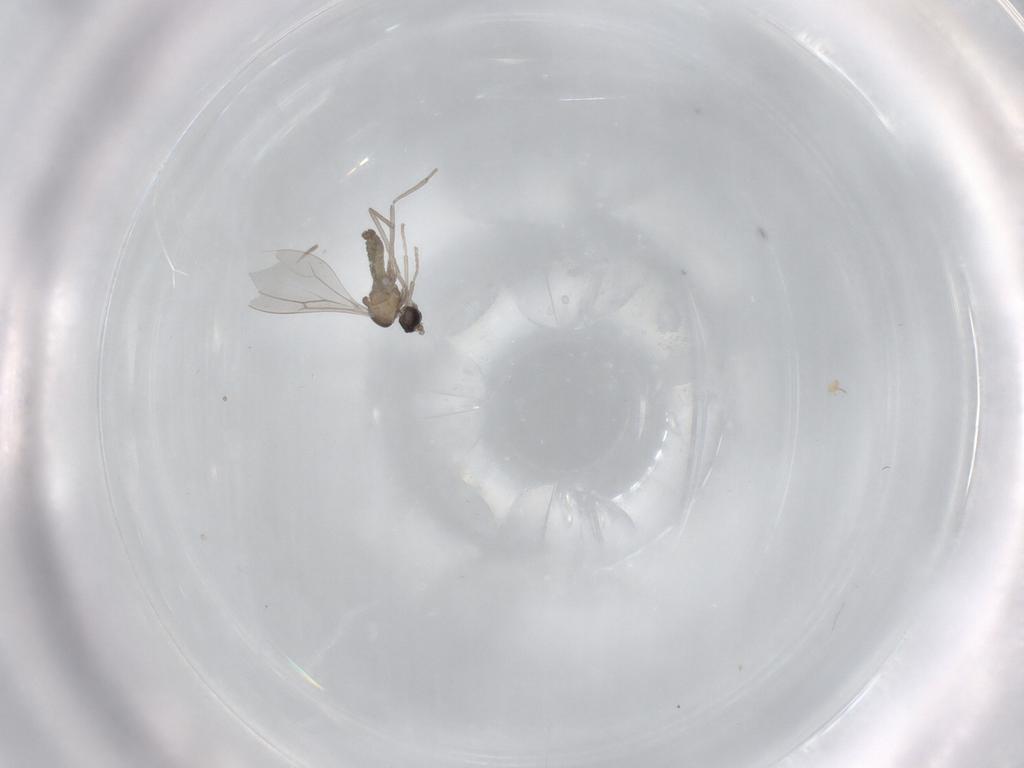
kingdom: Animalia
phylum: Arthropoda
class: Insecta
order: Diptera
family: Cecidomyiidae
